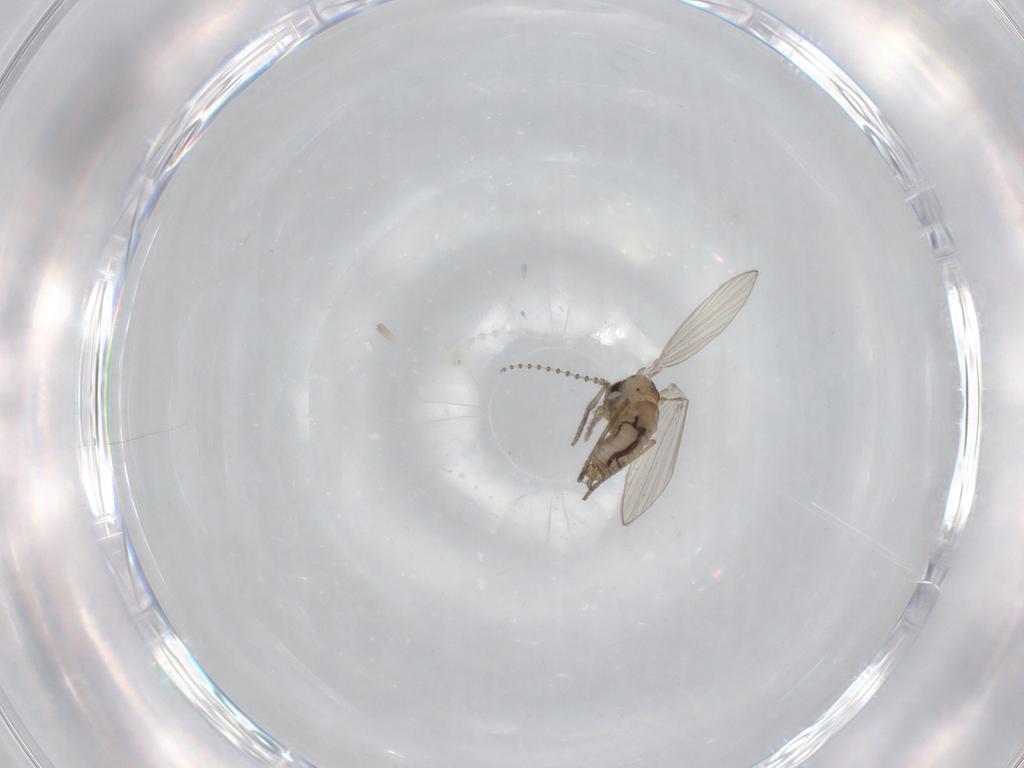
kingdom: Animalia
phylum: Arthropoda
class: Insecta
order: Diptera
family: Psychodidae
